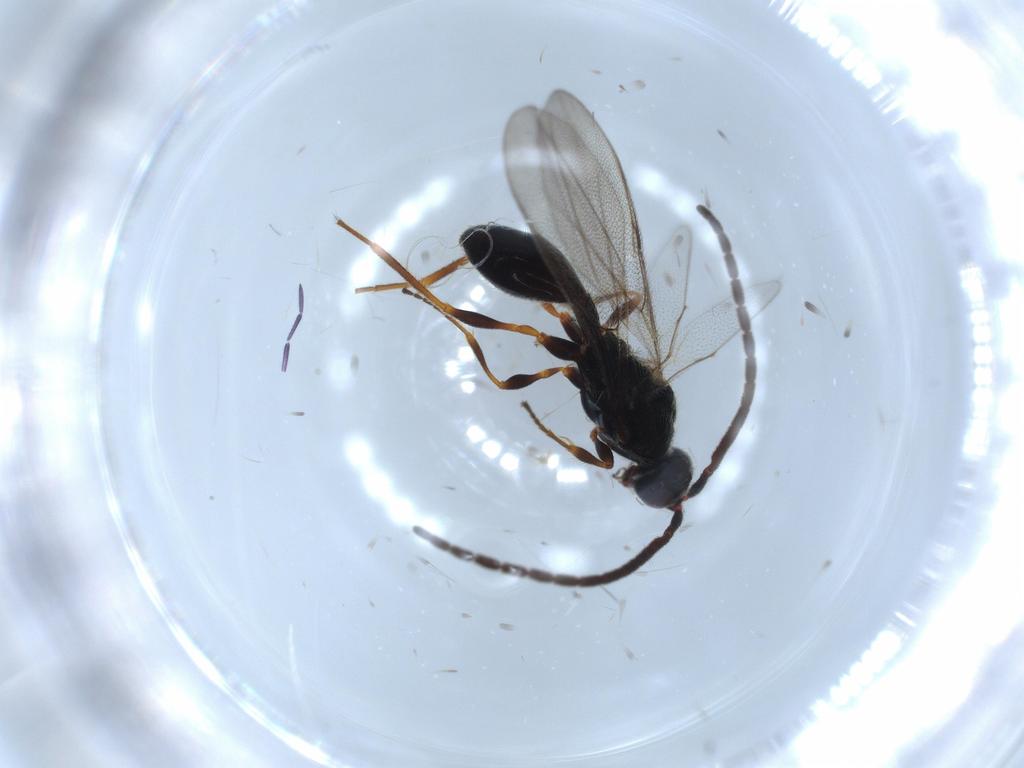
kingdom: Animalia
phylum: Arthropoda
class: Insecta
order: Hymenoptera
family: Diapriidae
